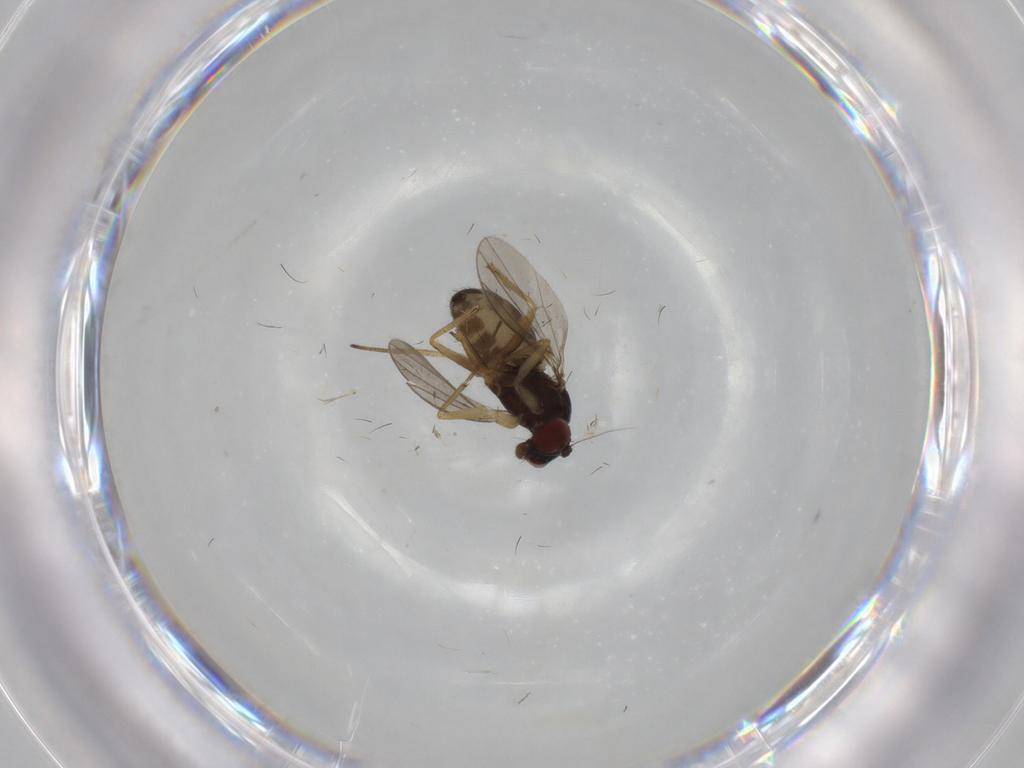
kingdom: Animalia
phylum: Arthropoda
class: Insecta
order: Diptera
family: Dolichopodidae
